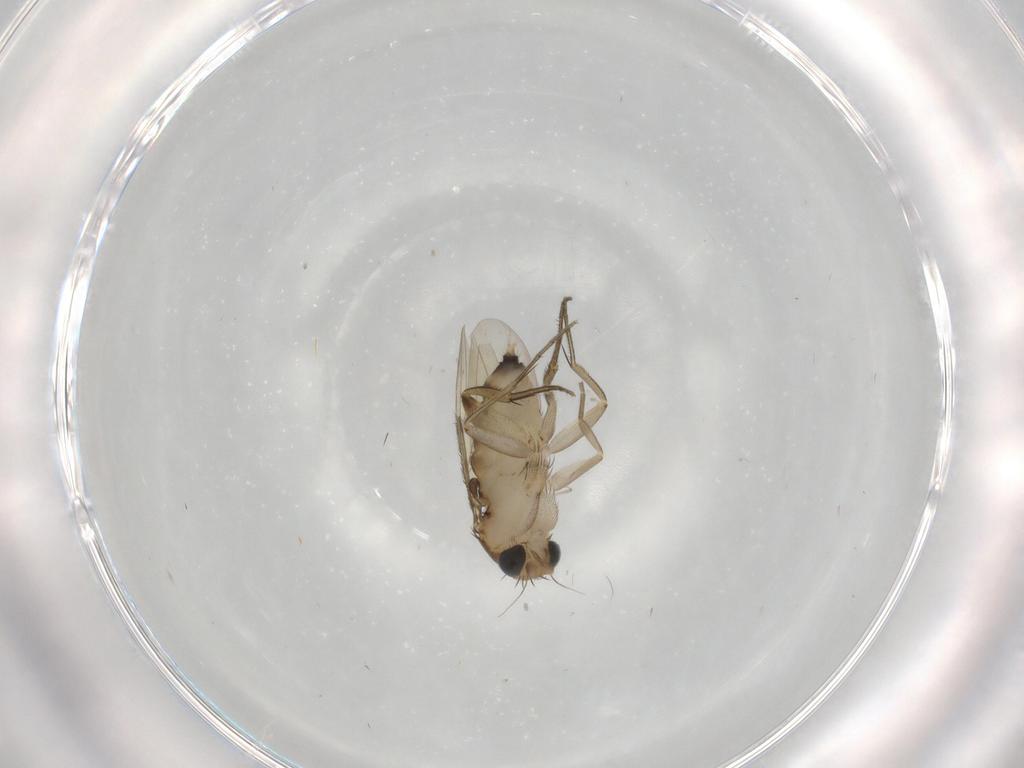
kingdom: Animalia
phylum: Arthropoda
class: Insecta
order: Diptera
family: Phoridae
